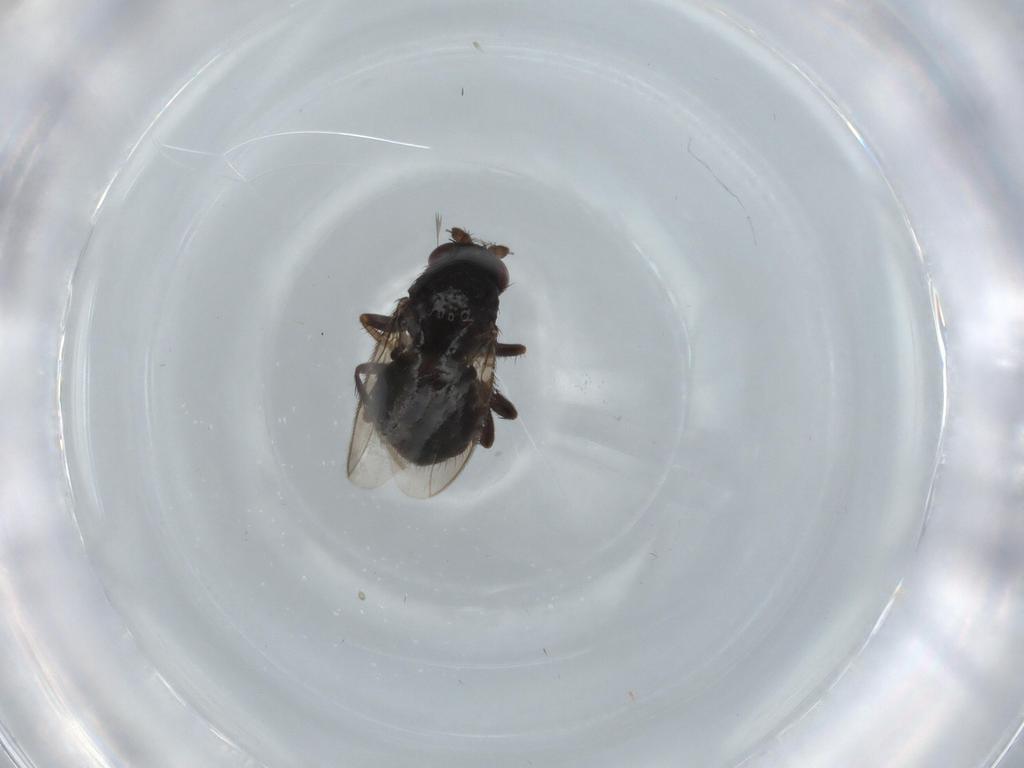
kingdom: Animalia
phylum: Arthropoda
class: Insecta
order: Diptera
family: Sphaeroceridae
